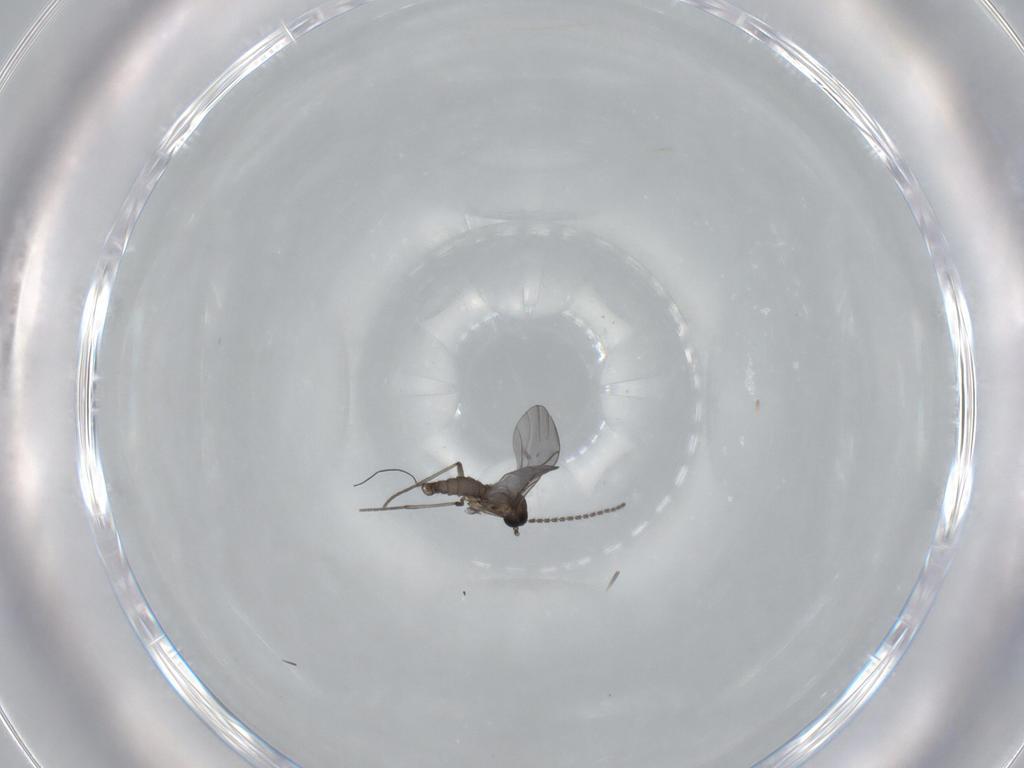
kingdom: Animalia
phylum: Arthropoda
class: Insecta
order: Diptera
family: Sciaridae
